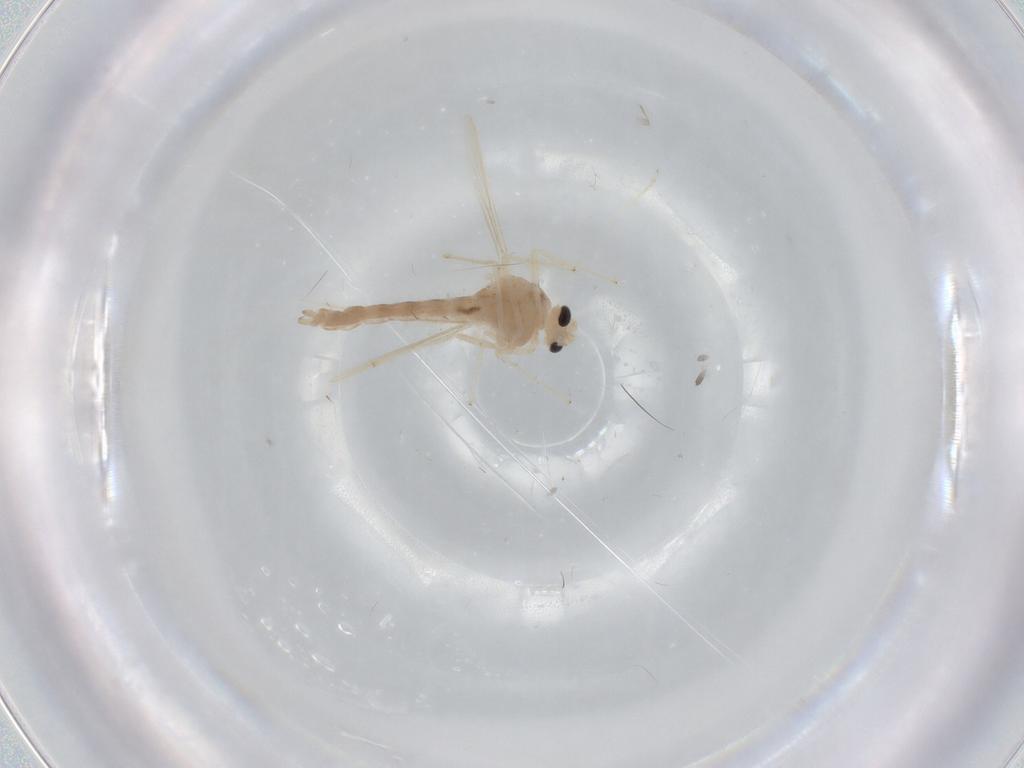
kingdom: Animalia
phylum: Arthropoda
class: Insecta
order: Diptera
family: Chironomidae
